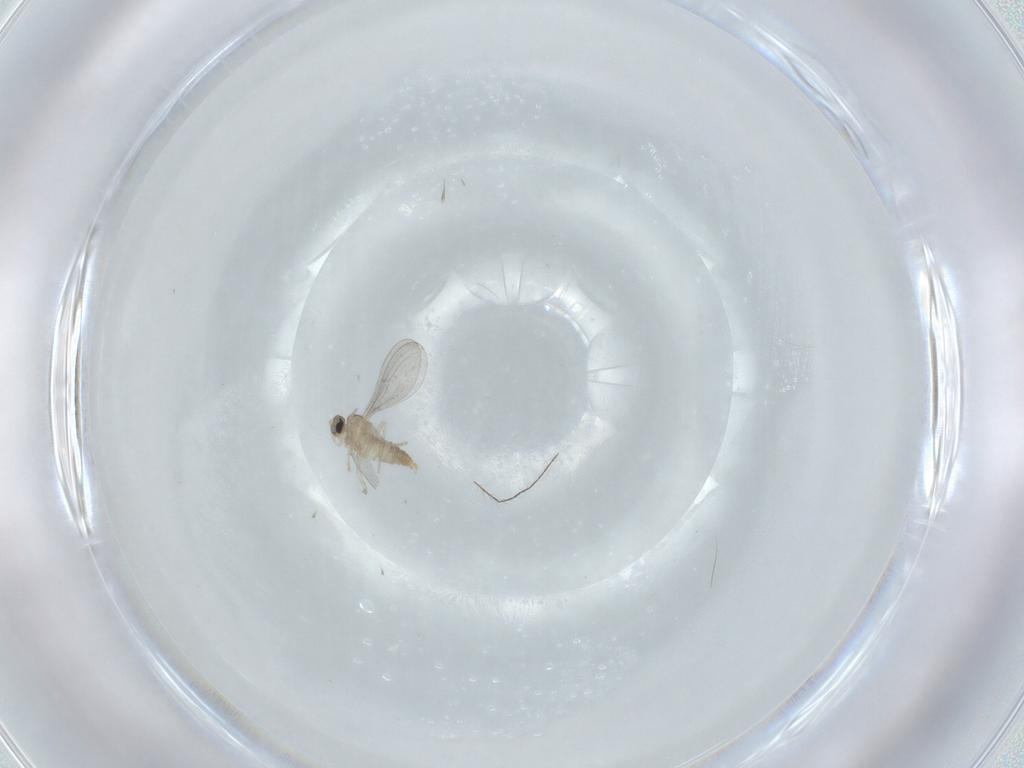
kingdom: Animalia
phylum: Arthropoda
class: Insecta
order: Diptera
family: Cecidomyiidae
